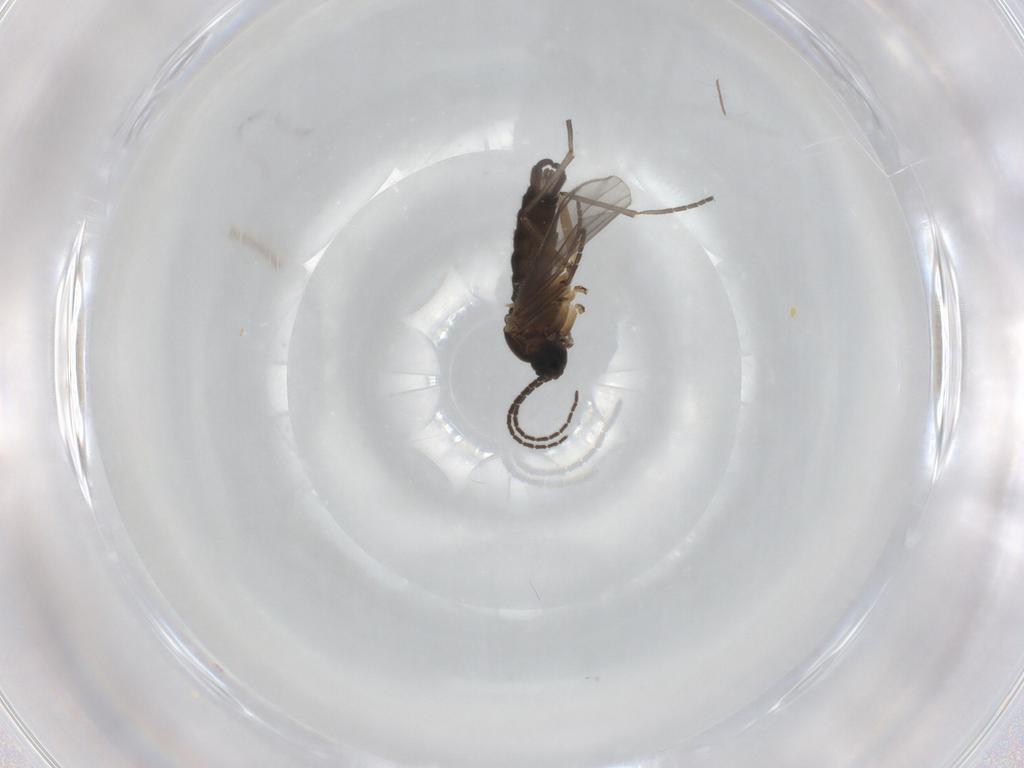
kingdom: Animalia
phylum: Arthropoda
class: Insecta
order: Diptera
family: Sciaridae
